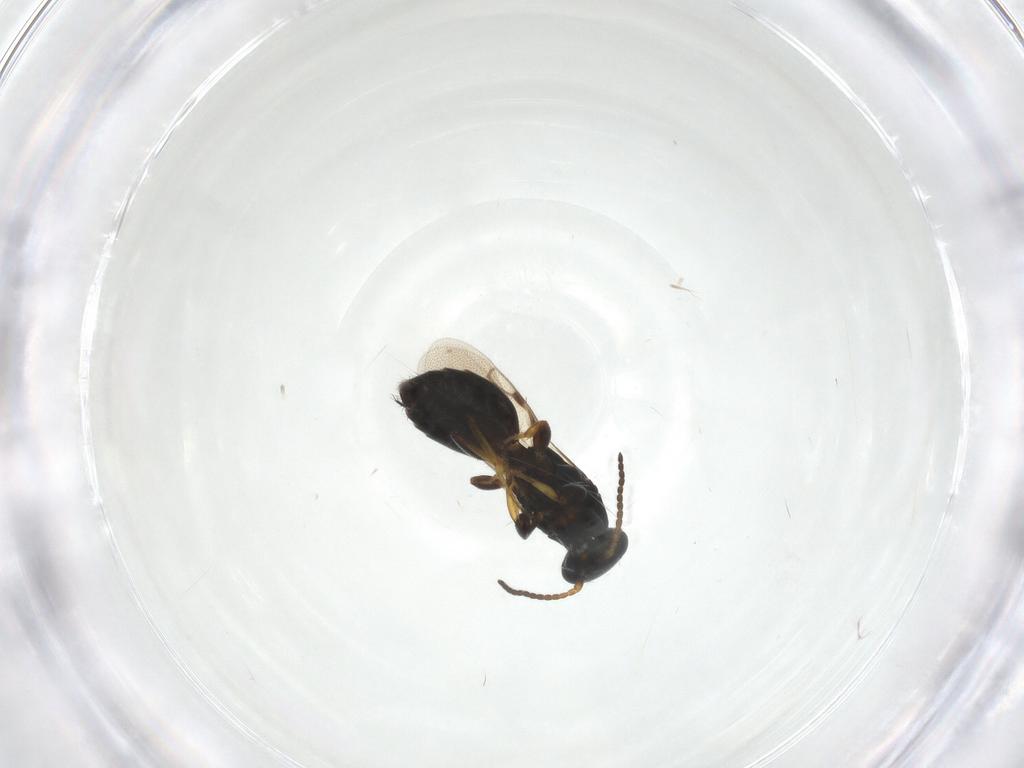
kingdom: Animalia
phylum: Arthropoda
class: Insecta
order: Hymenoptera
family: Bethylidae
